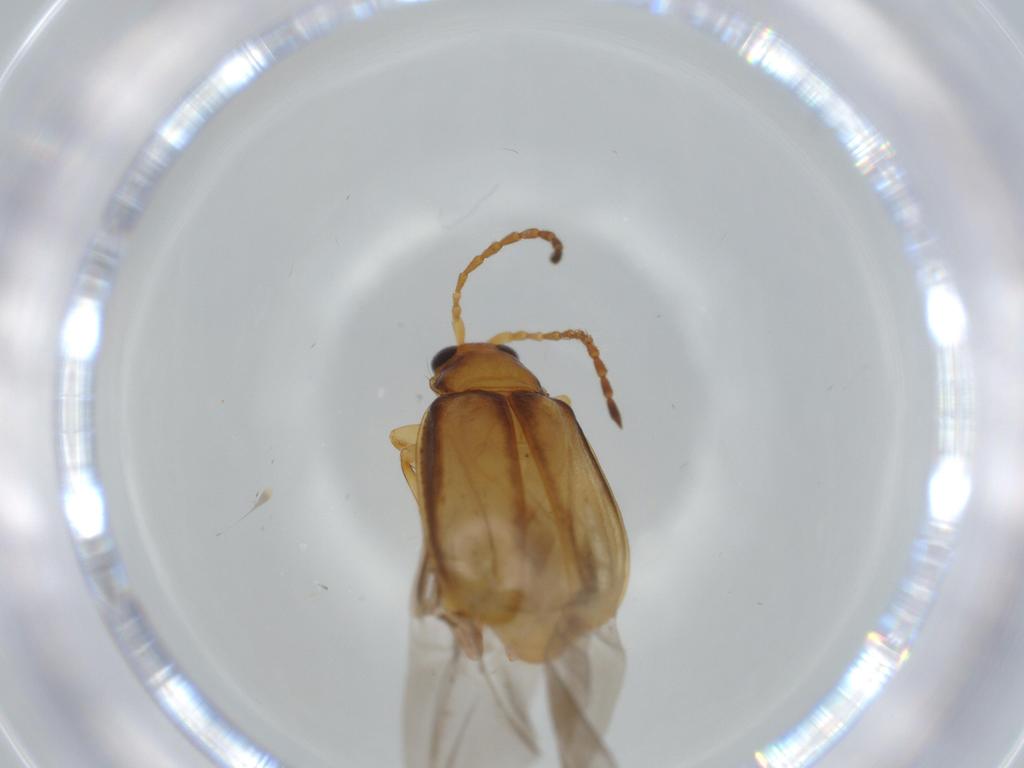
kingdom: Animalia
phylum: Arthropoda
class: Insecta
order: Coleoptera
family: Chrysomelidae
